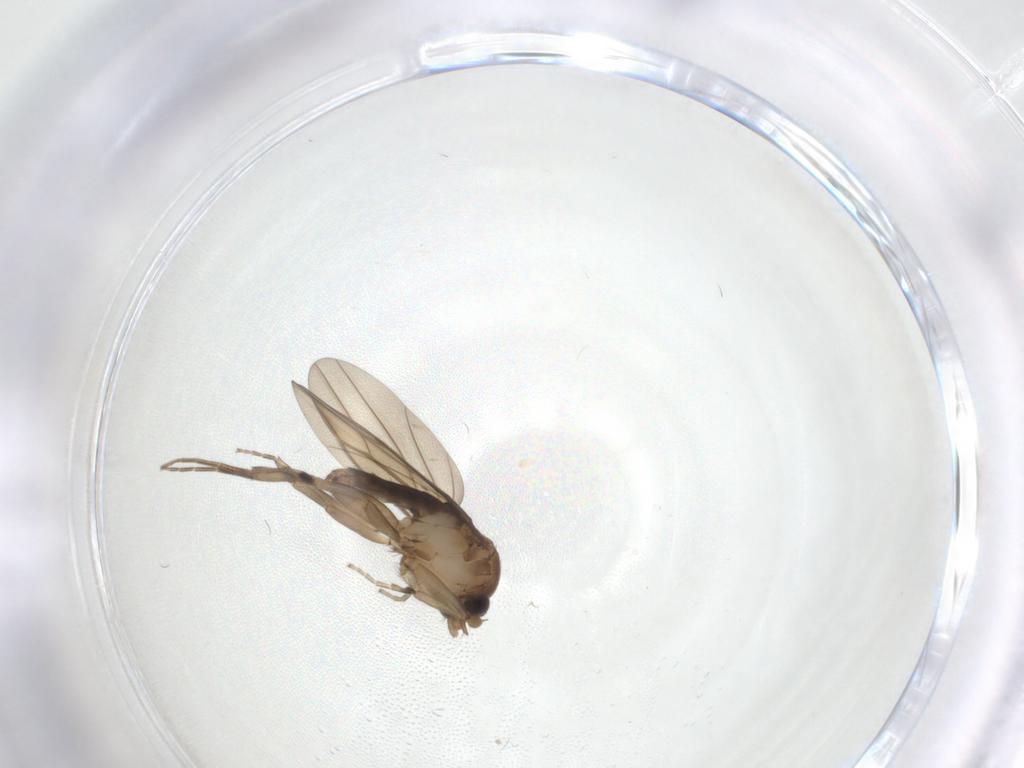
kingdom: Animalia
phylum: Arthropoda
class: Insecta
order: Diptera
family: Phoridae
